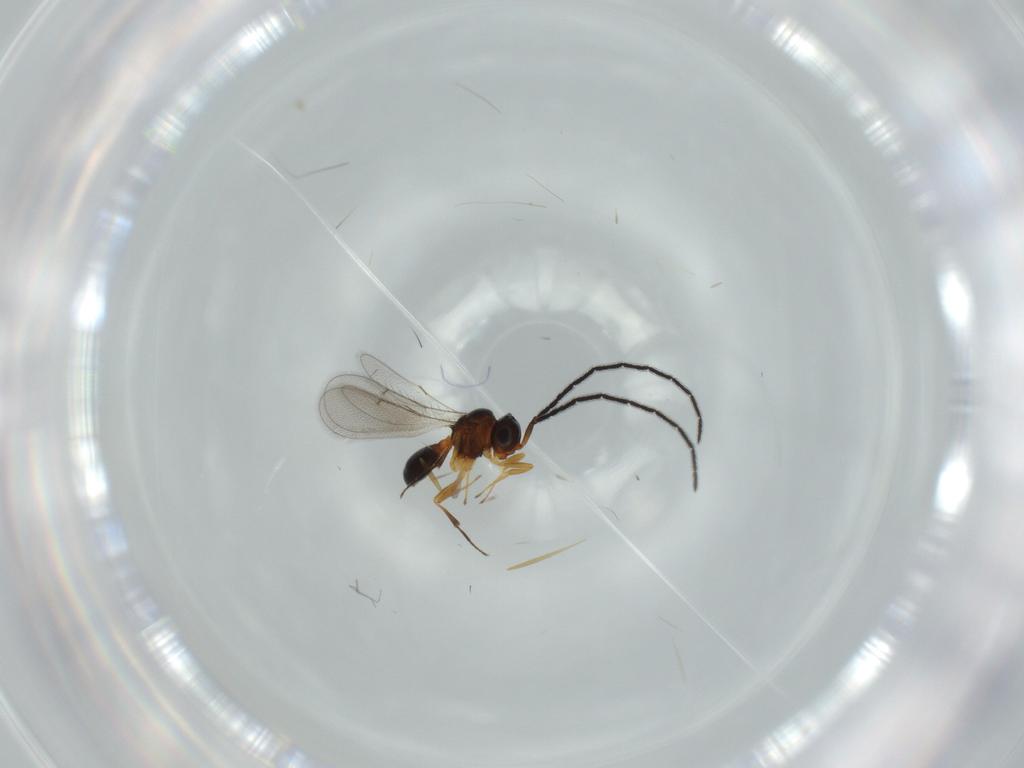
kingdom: Animalia
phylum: Arthropoda
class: Insecta
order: Hymenoptera
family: Scelionidae
